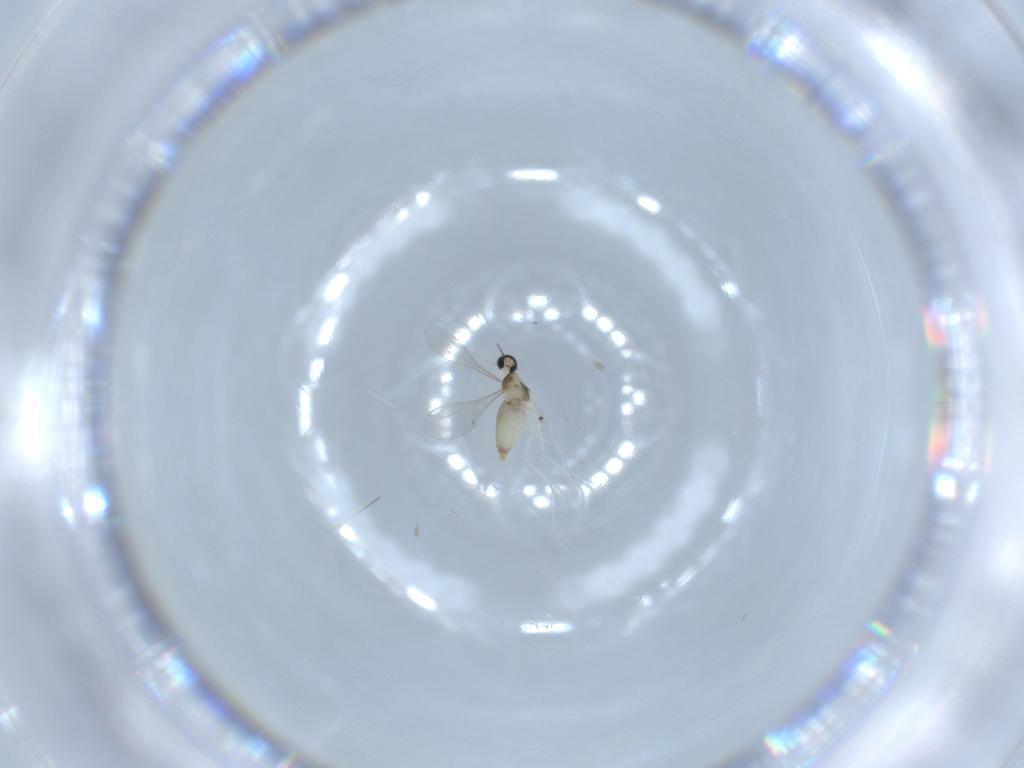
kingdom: Animalia
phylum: Arthropoda
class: Insecta
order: Diptera
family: Cecidomyiidae
